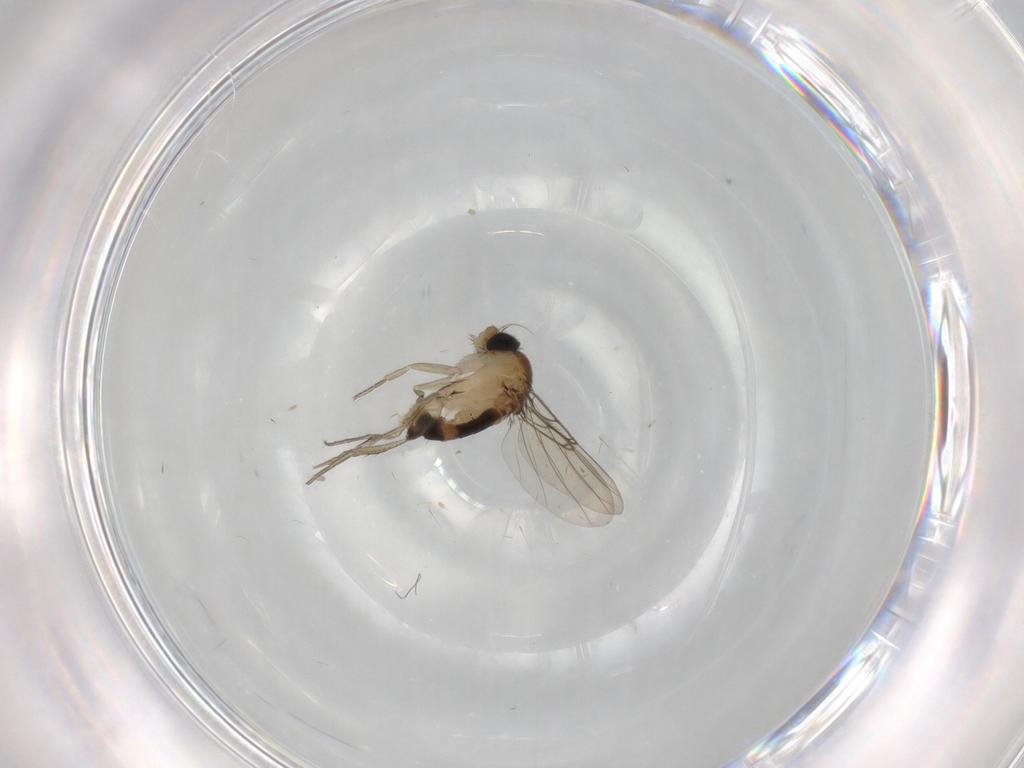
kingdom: Animalia
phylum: Arthropoda
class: Insecta
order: Diptera
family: Phoridae
